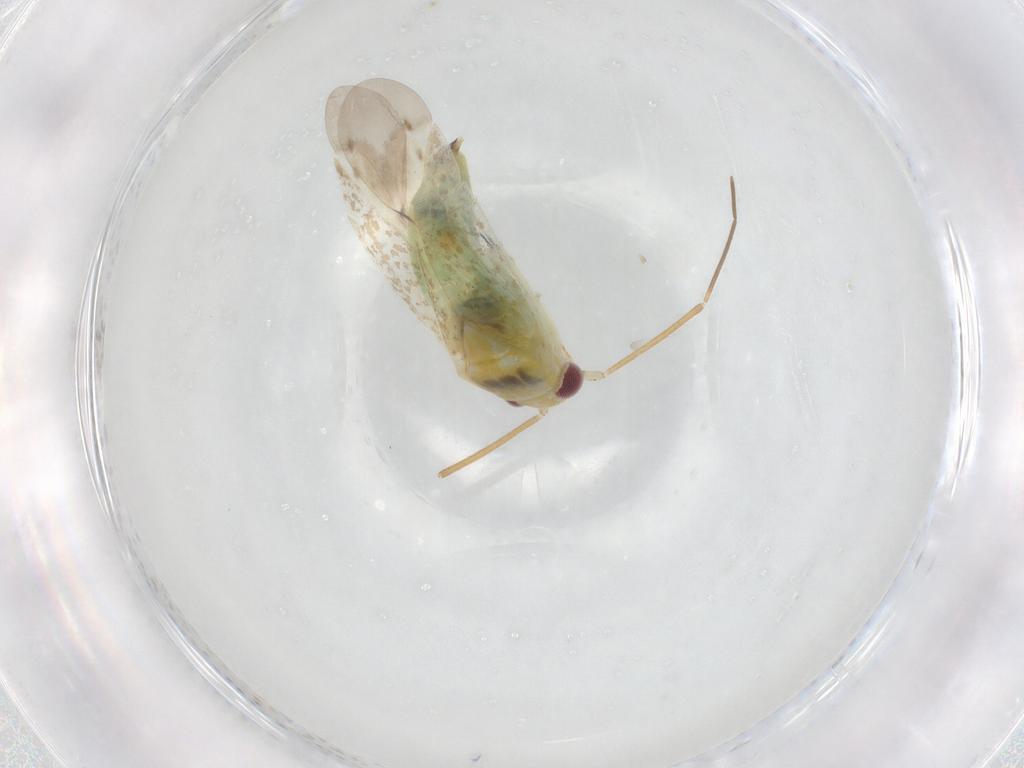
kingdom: Animalia
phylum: Arthropoda
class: Insecta
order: Hemiptera
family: Miridae
